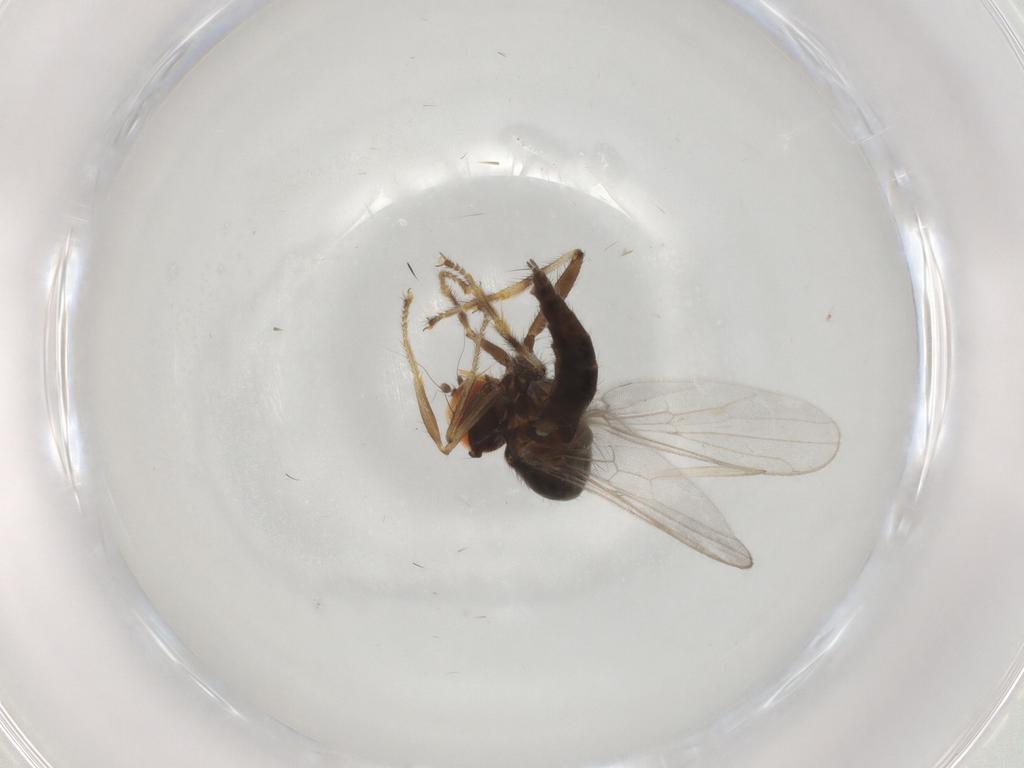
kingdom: Animalia
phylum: Arthropoda
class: Insecta
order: Diptera
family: Hybotidae
